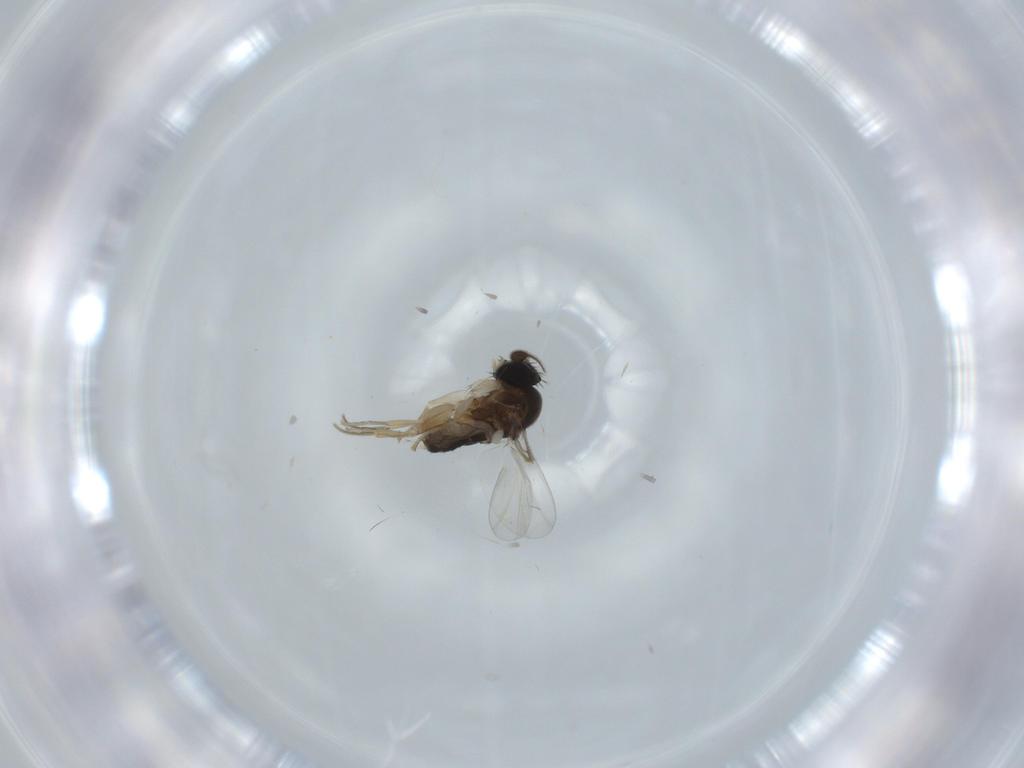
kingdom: Animalia
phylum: Arthropoda
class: Insecta
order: Diptera
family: Phoridae
